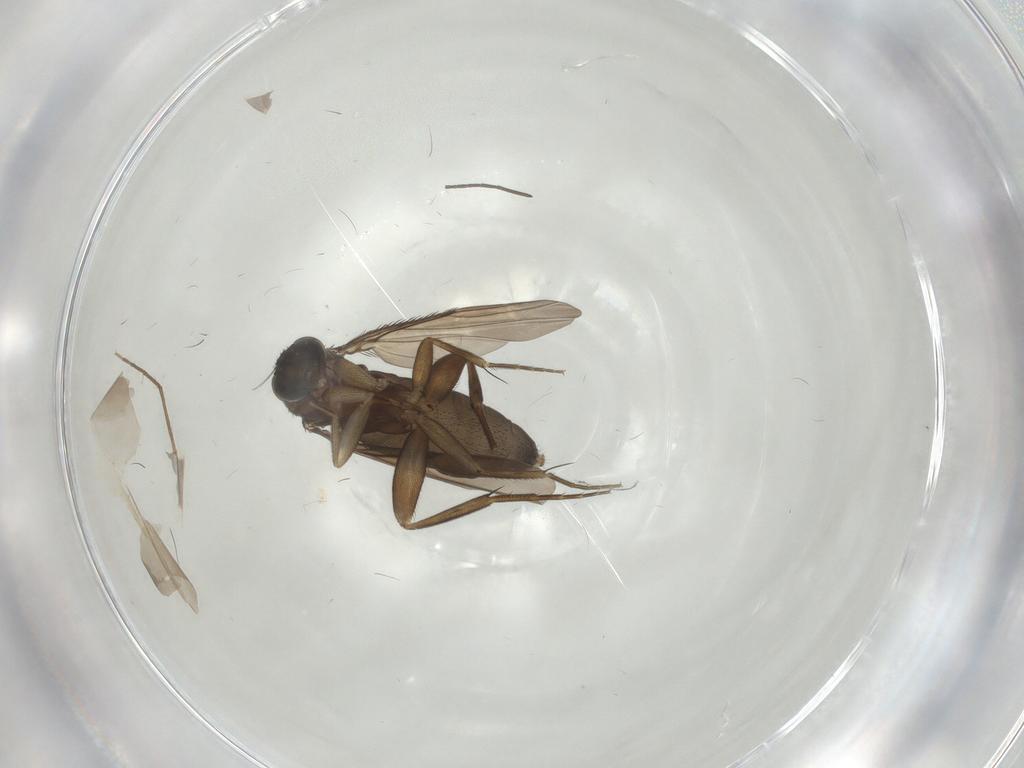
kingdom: Animalia
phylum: Arthropoda
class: Insecta
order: Diptera
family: Phoridae
